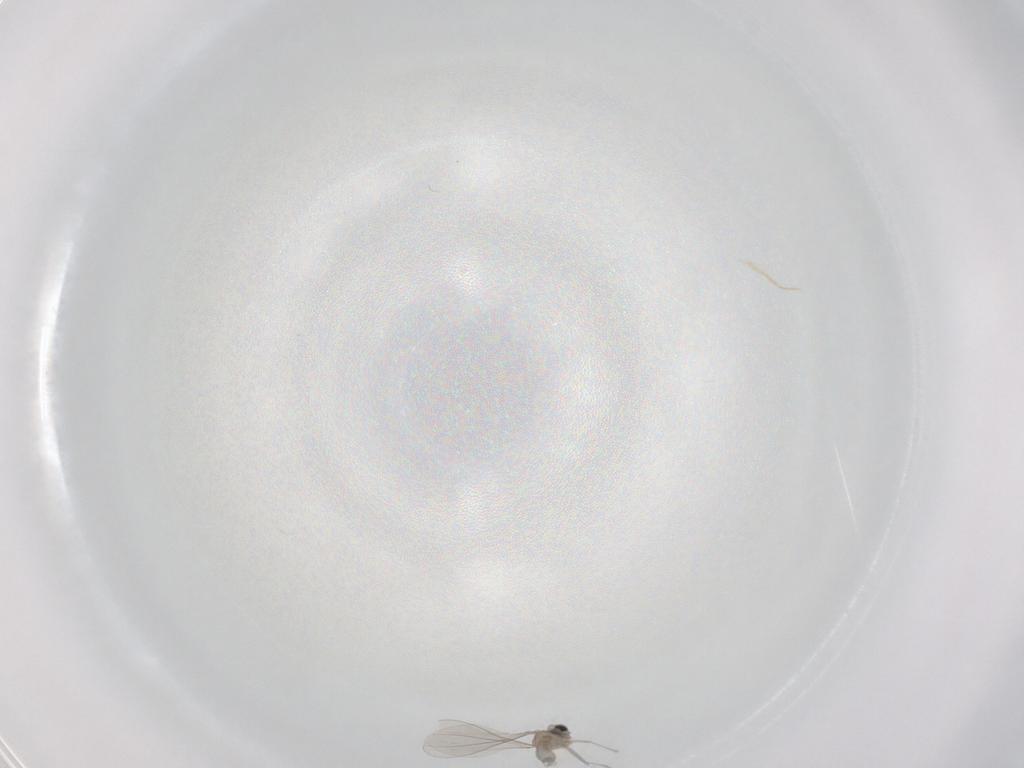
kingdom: Animalia
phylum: Arthropoda
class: Insecta
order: Diptera
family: Cecidomyiidae
